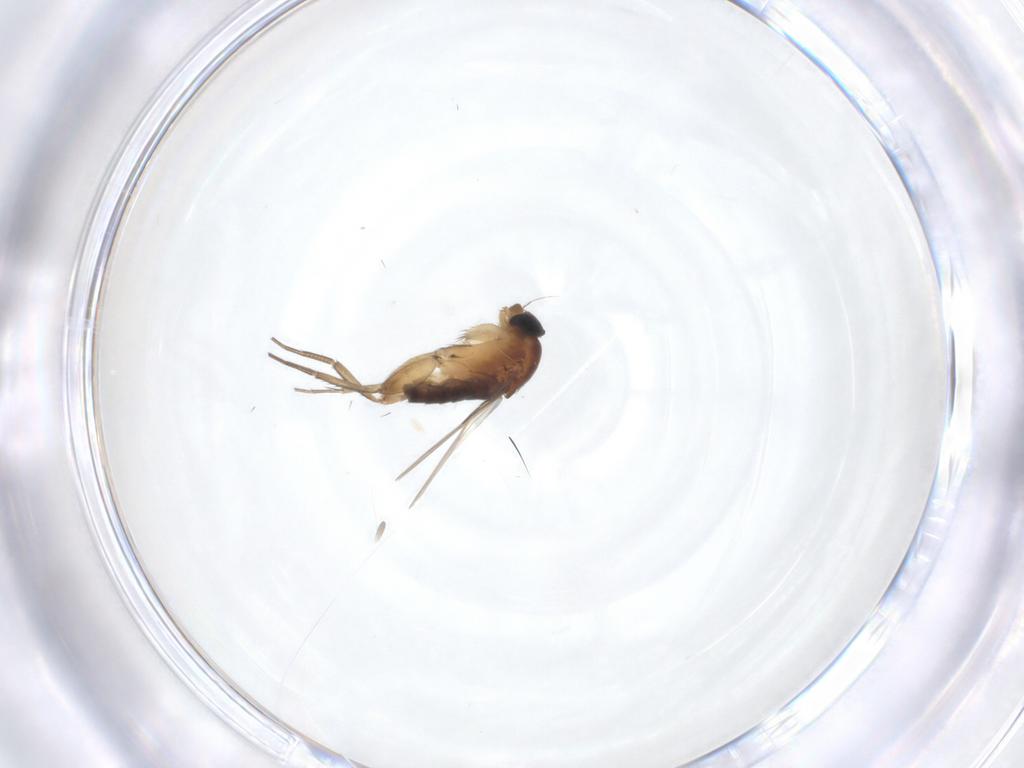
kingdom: Animalia
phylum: Arthropoda
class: Insecta
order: Diptera
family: Phoridae
